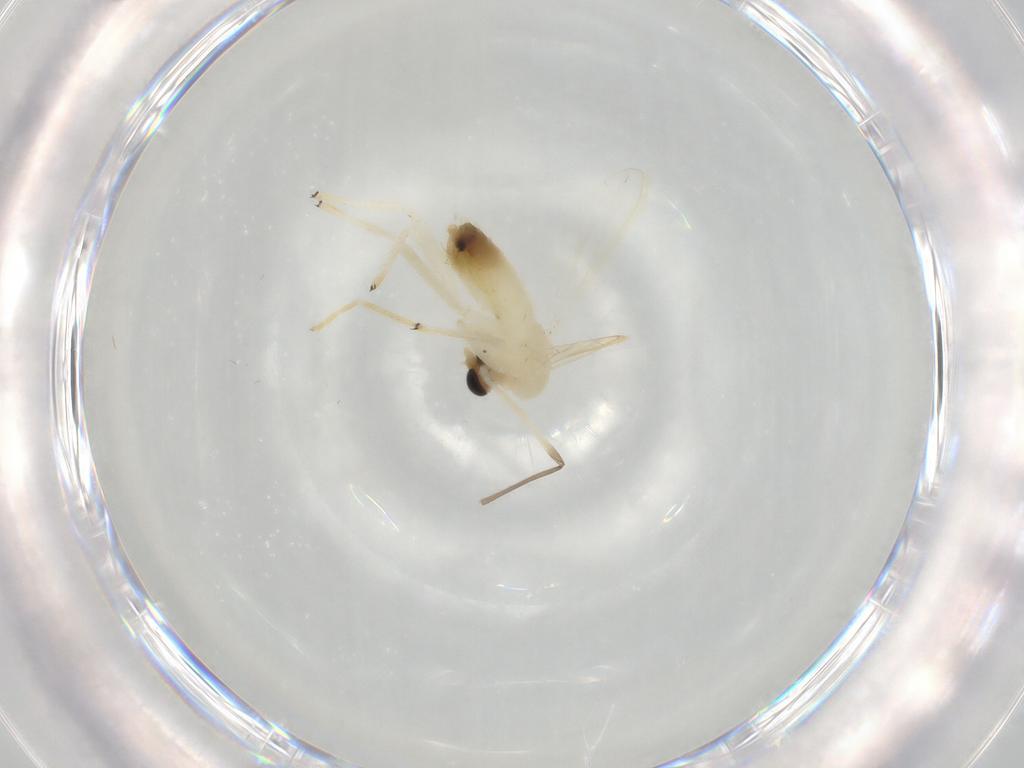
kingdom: Animalia
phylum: Arthropoda
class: Insecta
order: Diptera
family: Chironomidae
